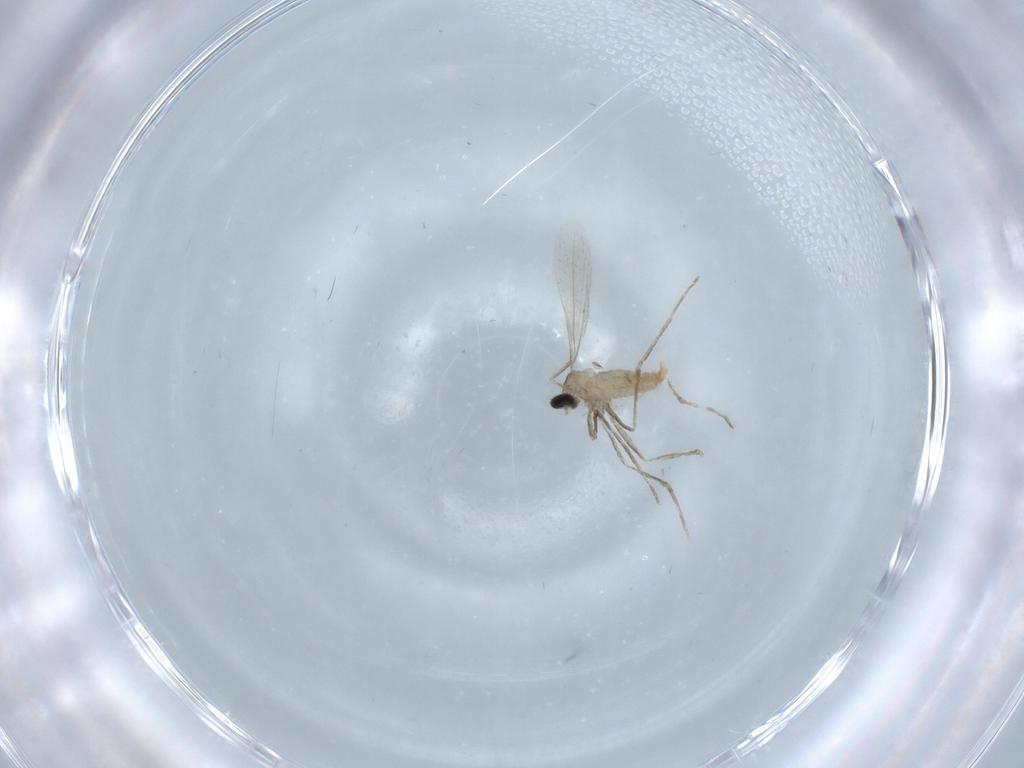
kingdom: Animalia
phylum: Arthropoda
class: Insecta
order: Diptera
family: Cecidomyiidae
